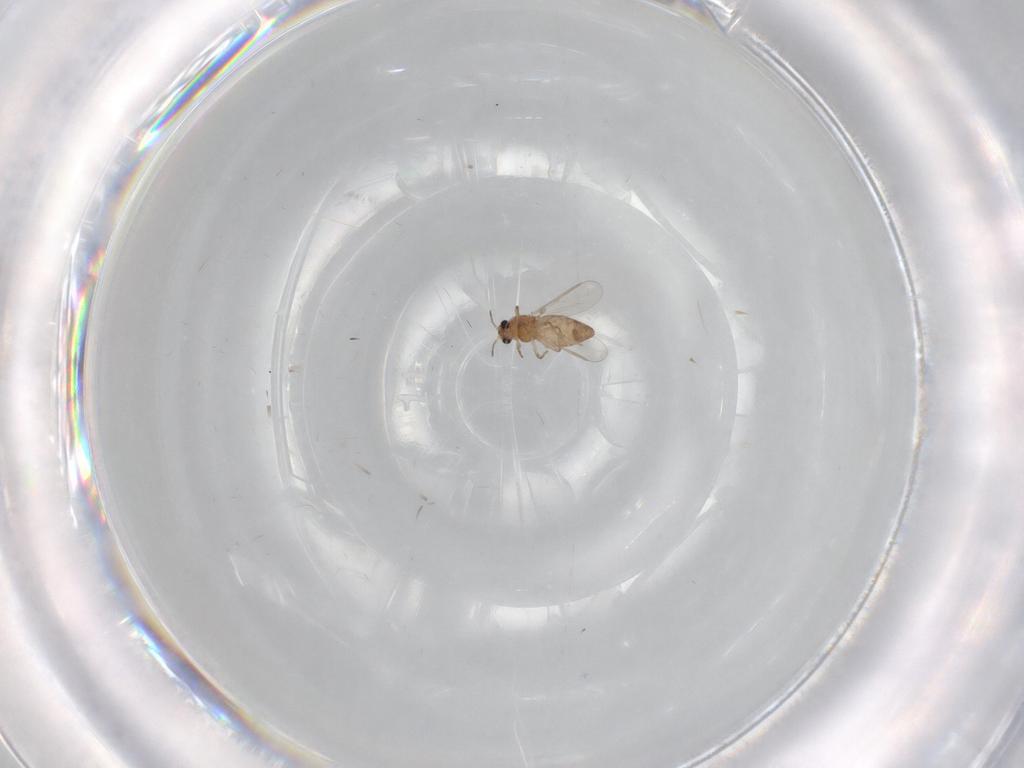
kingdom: Animalia
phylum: Arthropoda
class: Insecta
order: Diptera
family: Chironomidae
